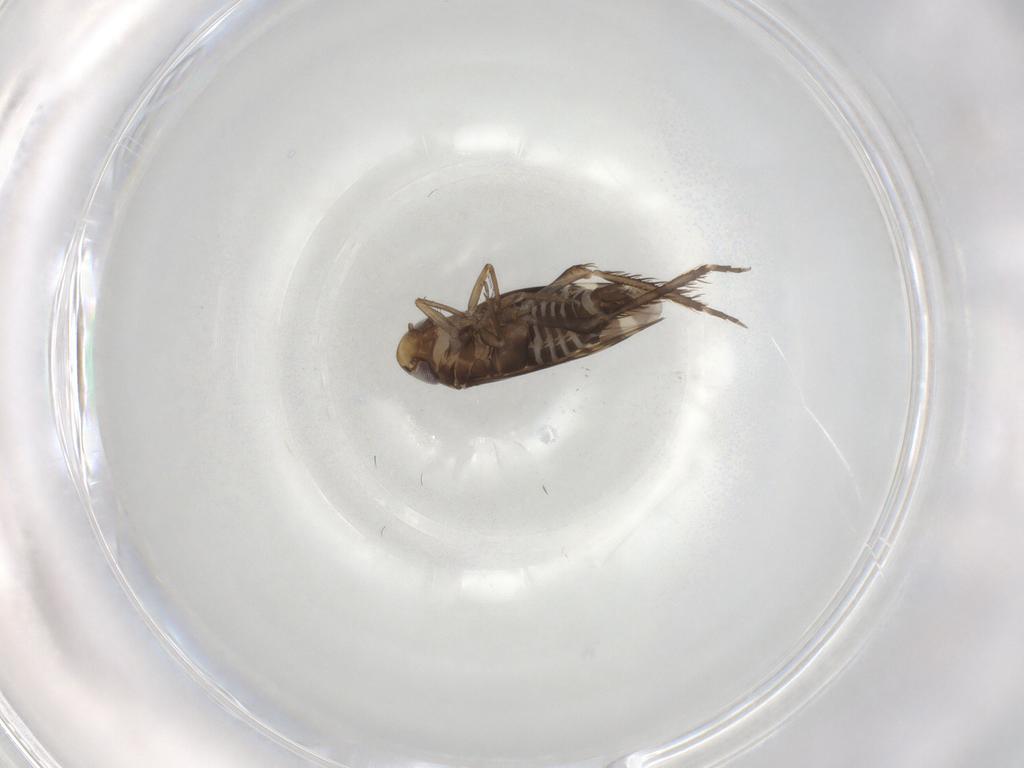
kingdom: Animalia
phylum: Arthropoda
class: Insecta
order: Hemiptera
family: Cicadellidae
